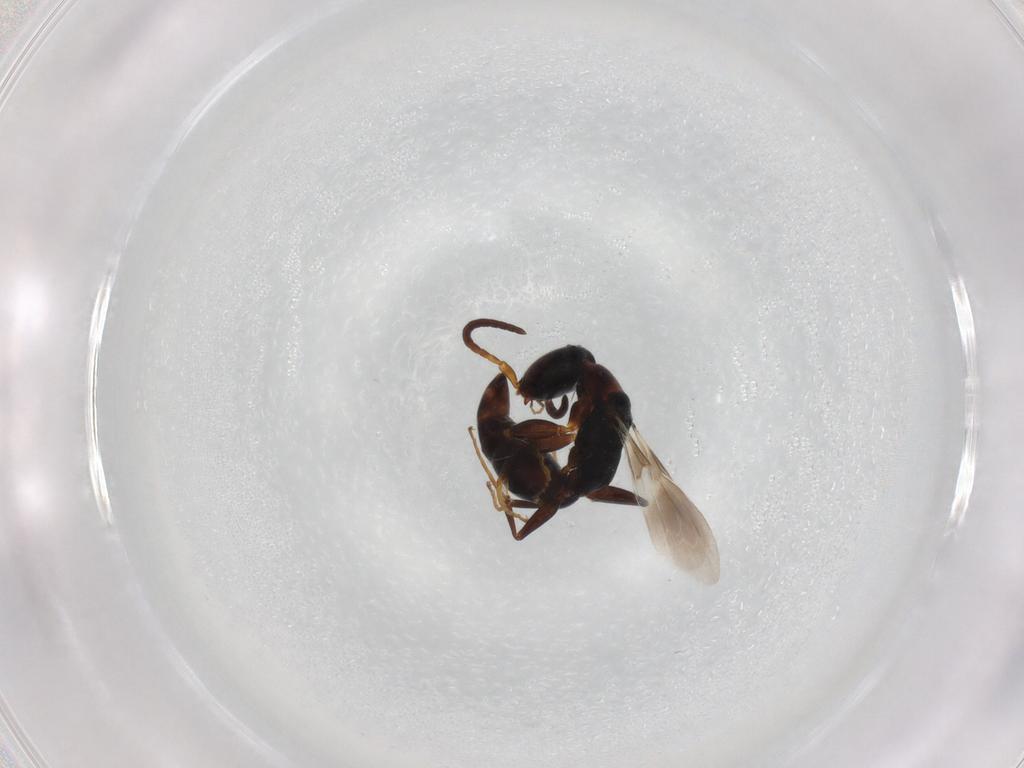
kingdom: Animalia
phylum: Arthropoda
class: Insecta
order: Hymenoptera
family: Bethylidae
